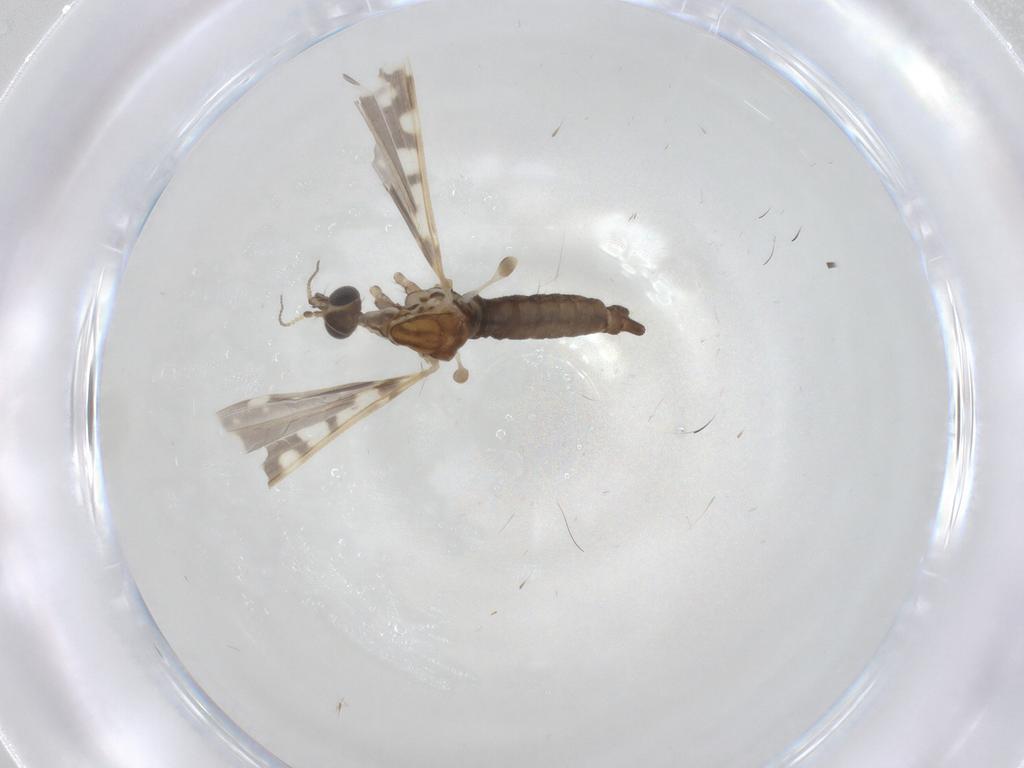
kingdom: Animalia
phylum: Arthropoda
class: Insecta
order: Diptera
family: Limoniidae
